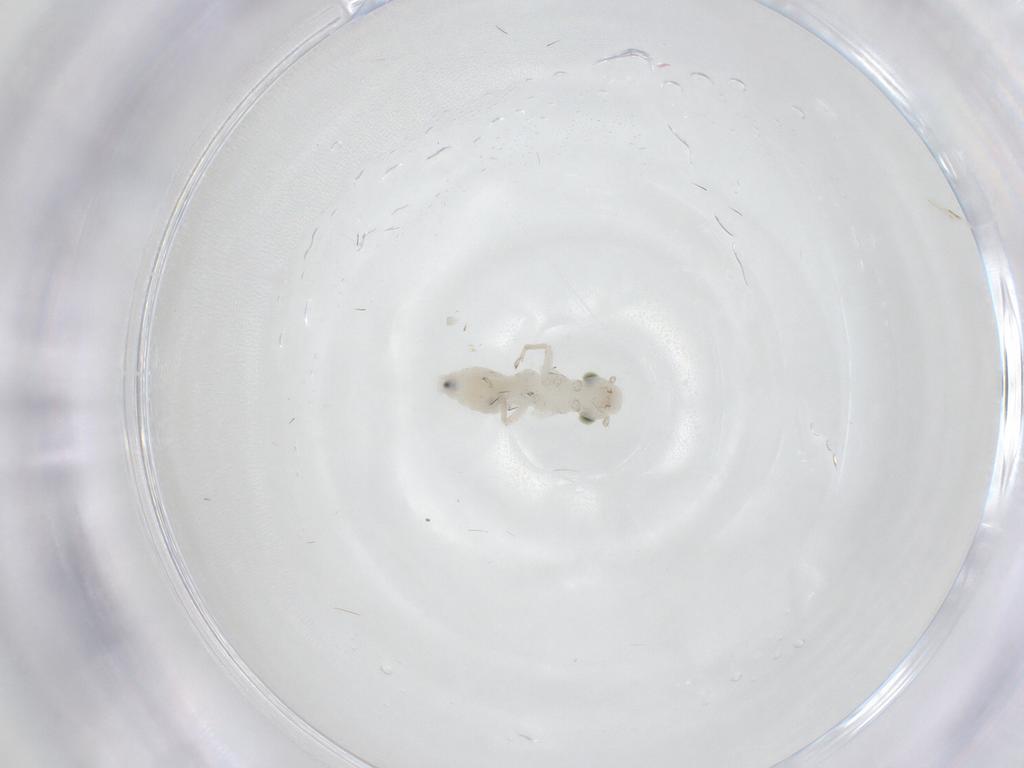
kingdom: Animalia
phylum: Arthropoda
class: Insecta
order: Psocodea
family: Caeciliusidae
